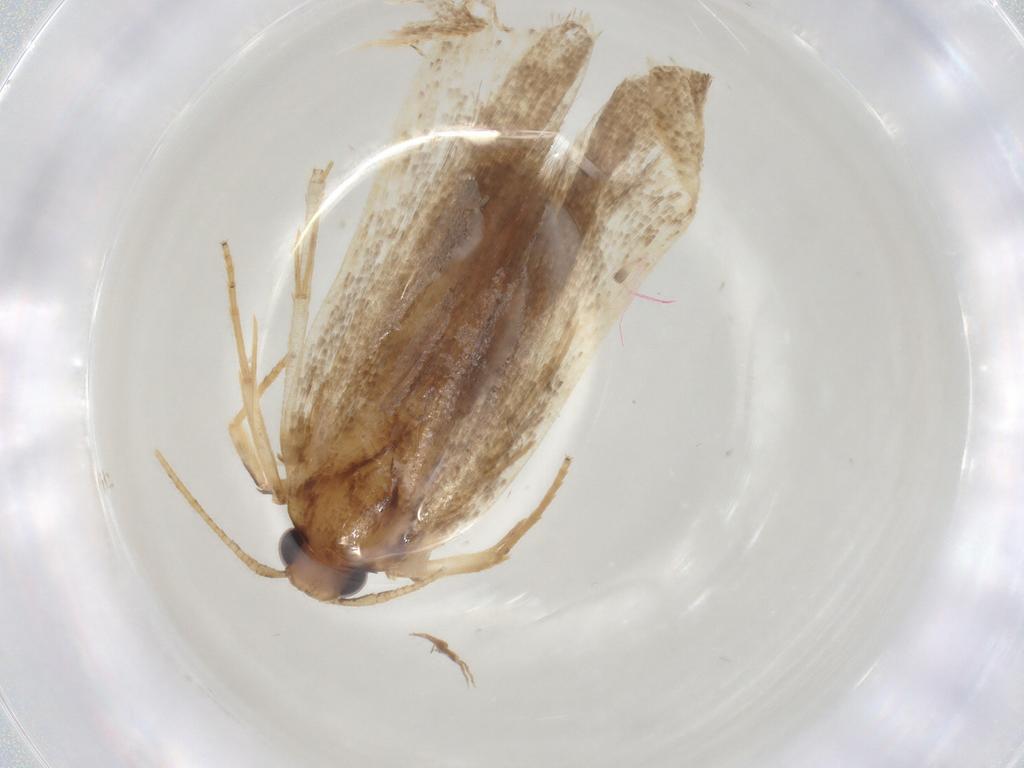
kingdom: Animalia
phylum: Arthropoda
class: Insecta
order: Lepidoptera
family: Lecithoceridae
